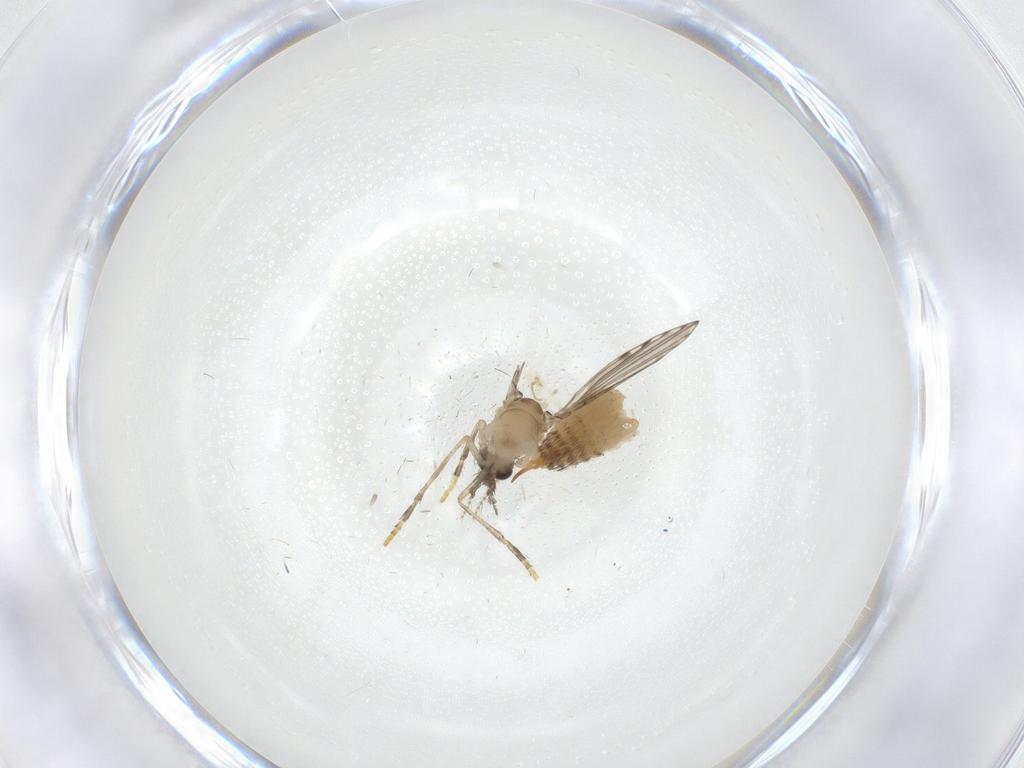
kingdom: Animalia
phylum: Arthropoda
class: Insecta
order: Diptera
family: Psychodidae
